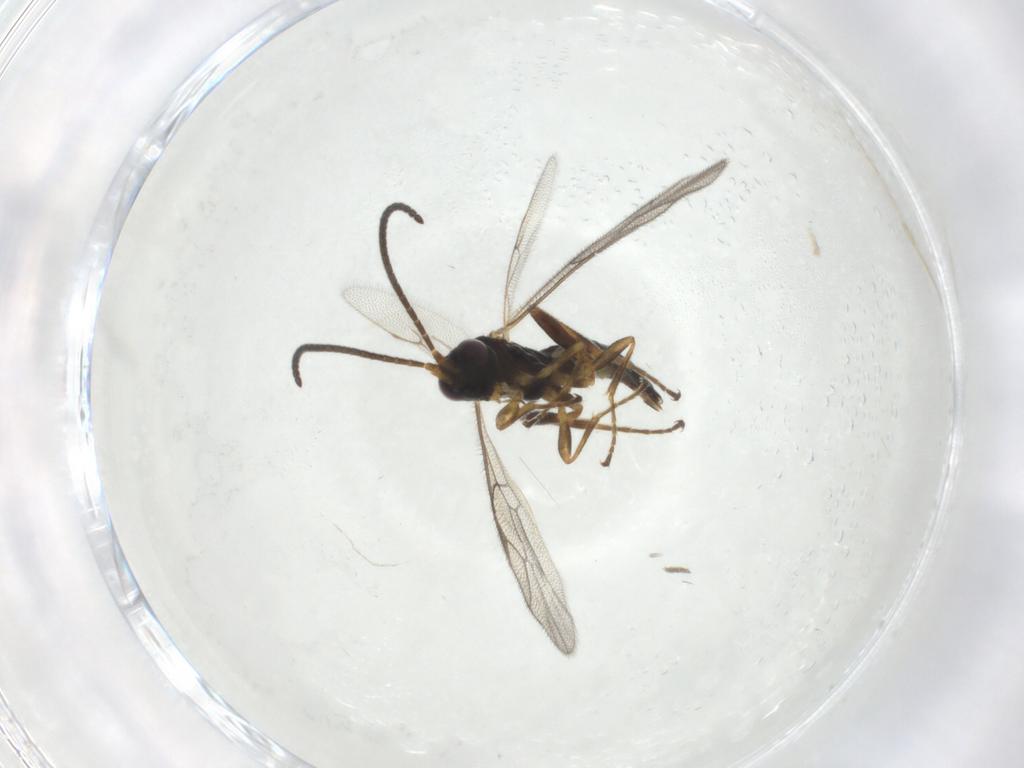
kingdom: Animalia
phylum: Arthropoda
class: Insecta
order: Hymenoptera
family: Ichneumonidae
